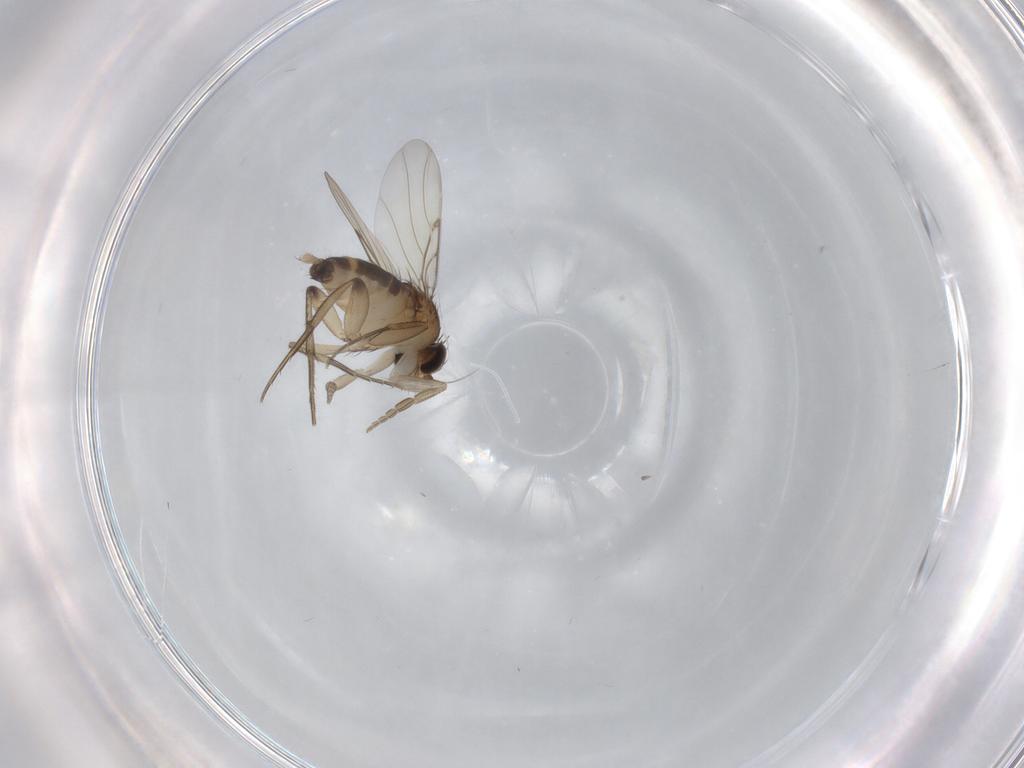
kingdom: Animalia
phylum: Arthropoda
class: Insecta
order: Diptera
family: Phoridae
